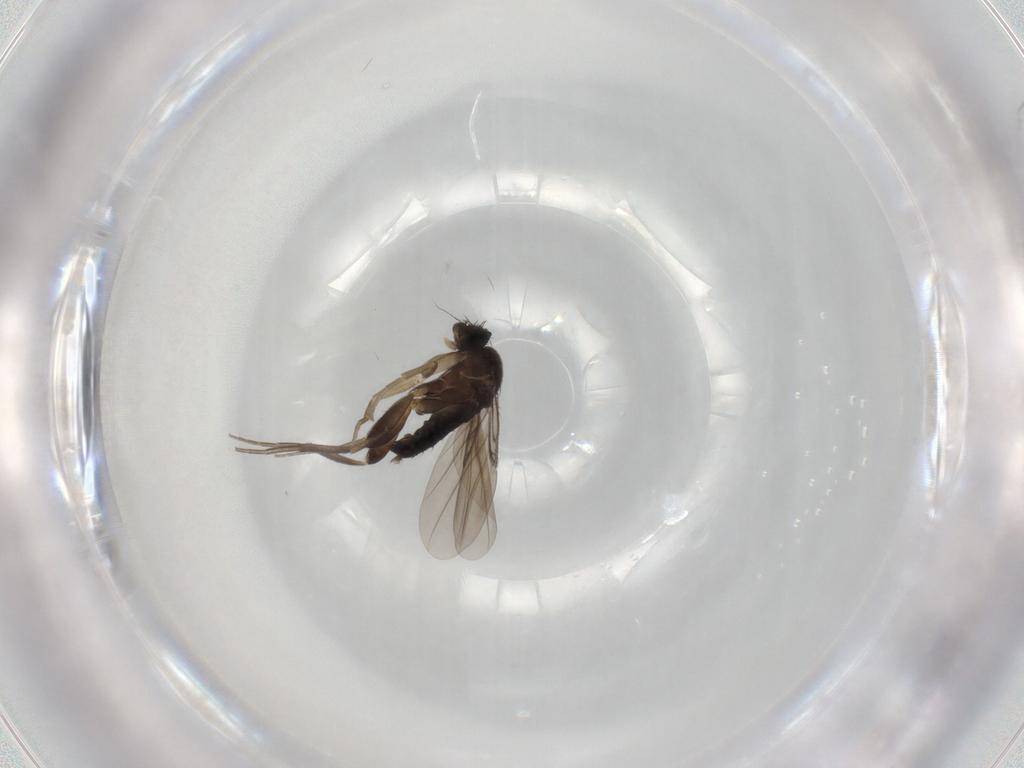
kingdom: Animalia
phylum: Arthropoda
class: Insecta
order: Diptera
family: Phoridae
